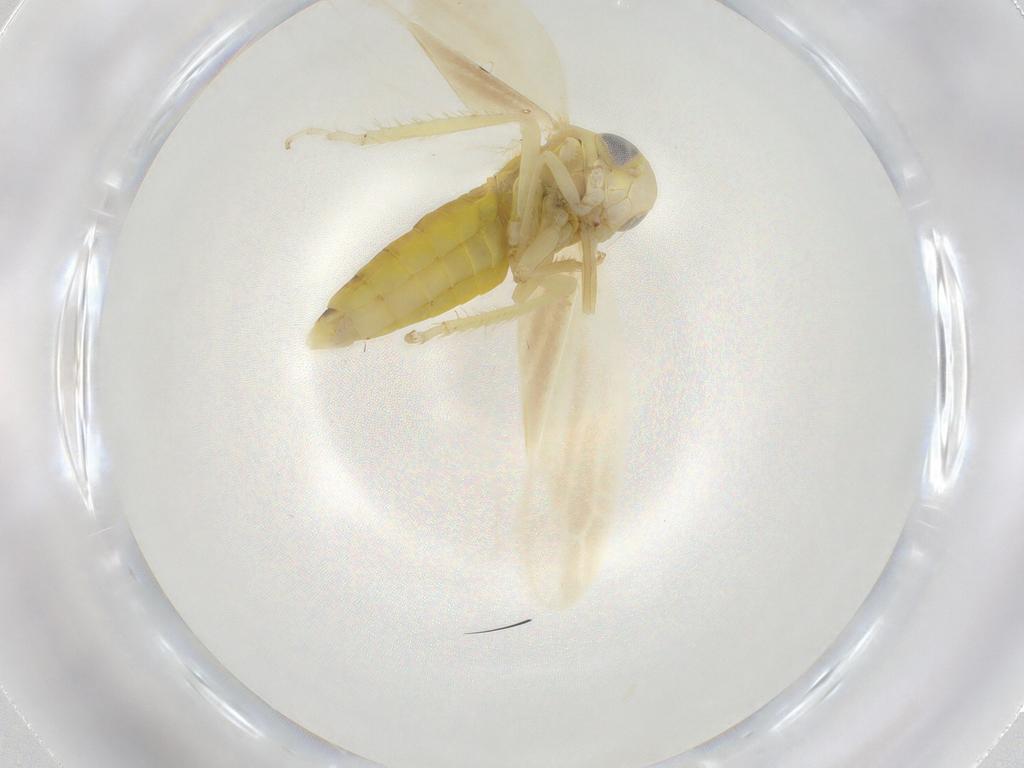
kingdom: Animalia
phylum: Arthropoda
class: Insecta
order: Hemiptera
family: Cicadellidae
